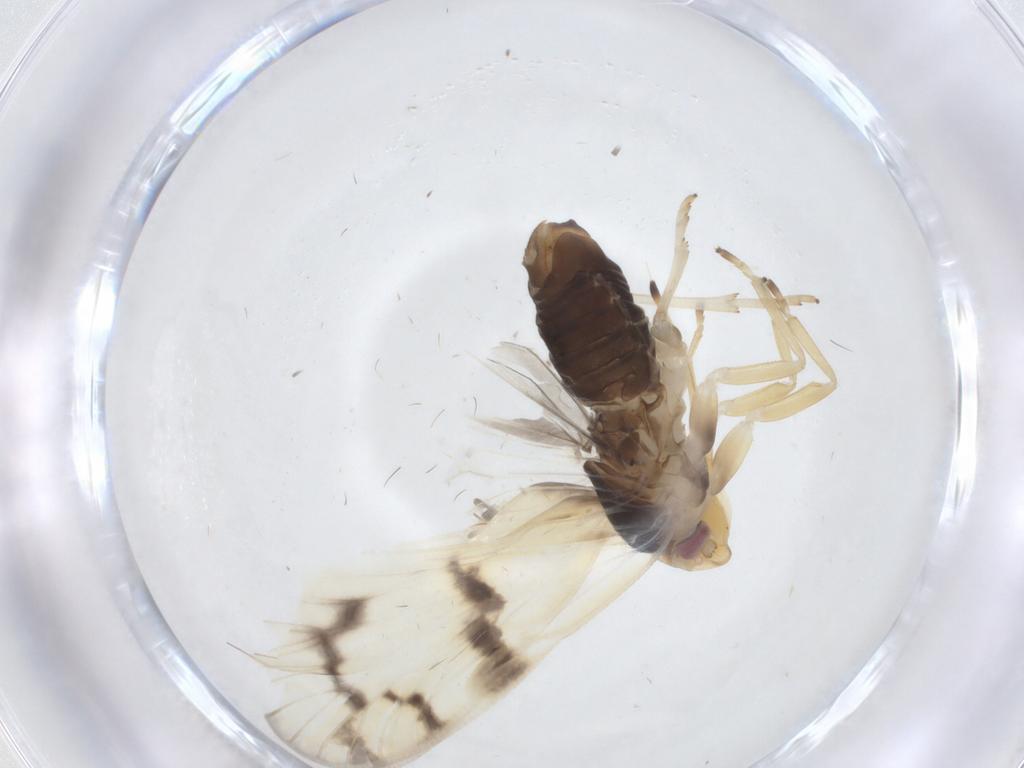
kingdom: Animalia
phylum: Arthropoda
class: Insecta
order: Hemiptera
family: Cixiidae
